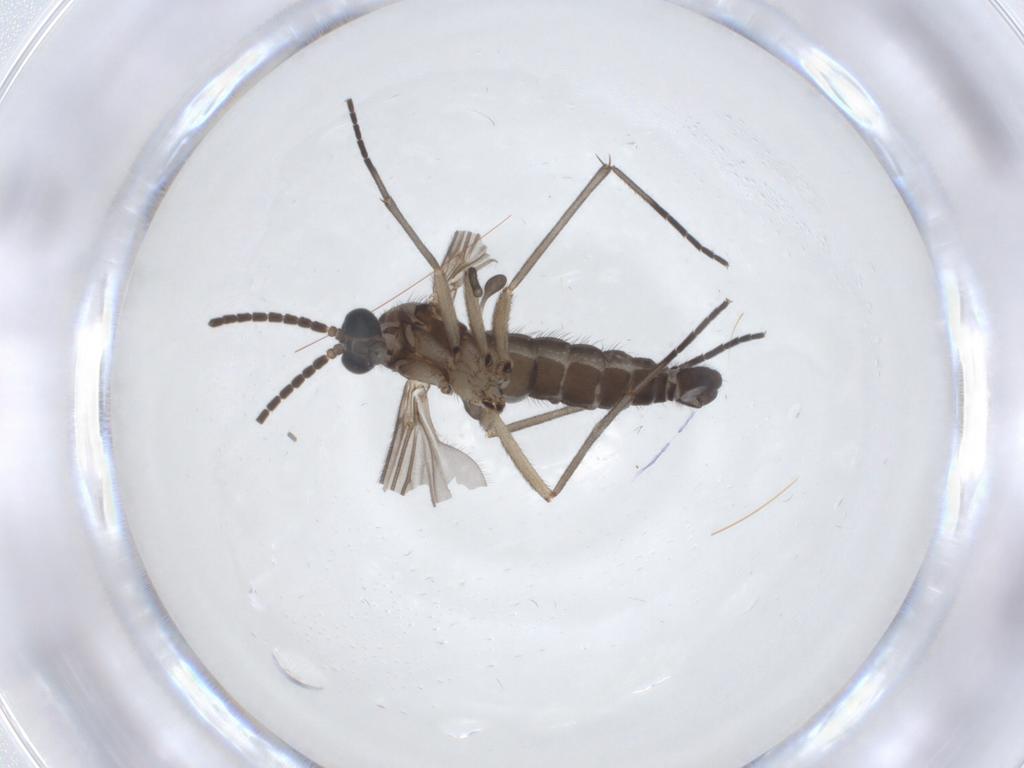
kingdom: Animalia
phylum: Arthropoda
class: Insecta
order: Diptera
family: Sciaridae
